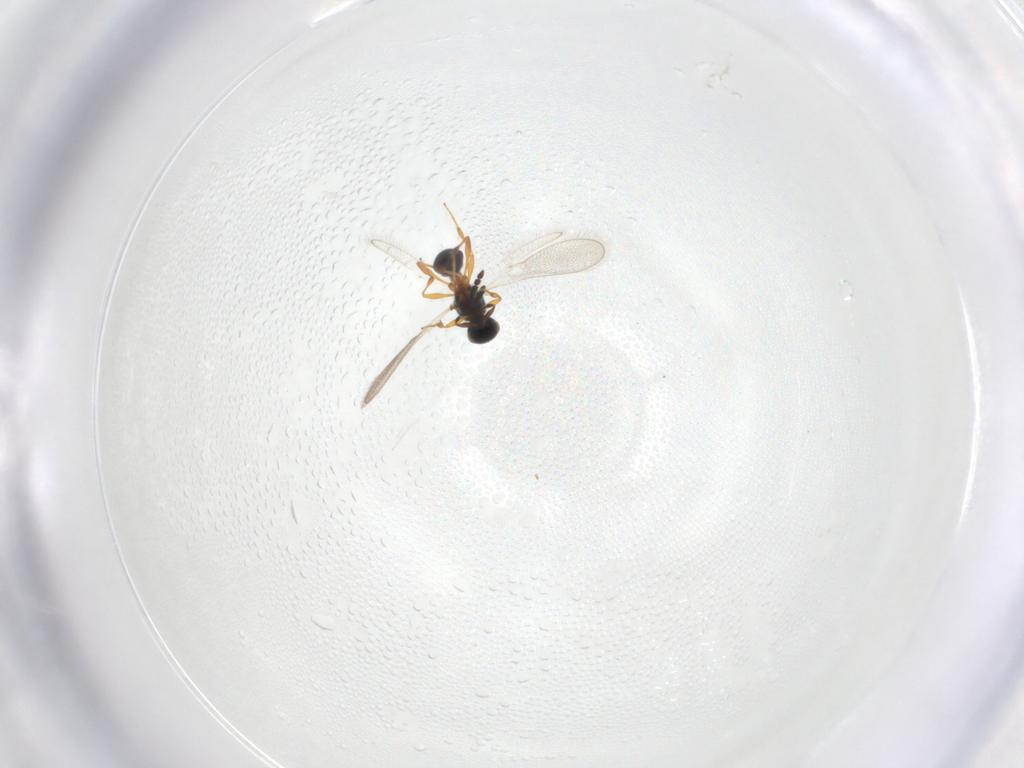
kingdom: Animalia
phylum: Arthropoda
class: Insecta
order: Hymenoptera
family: Platygastridae
